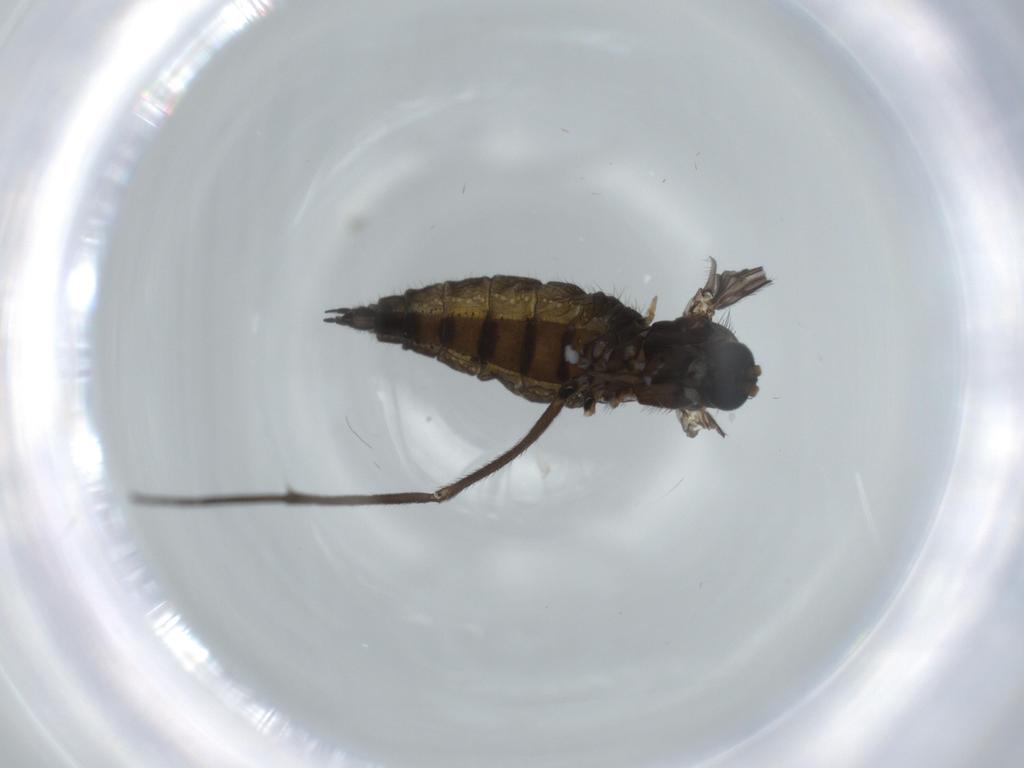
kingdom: Animalia
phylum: Arthropoda
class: Insecta
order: Diptera
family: Sciaridae
